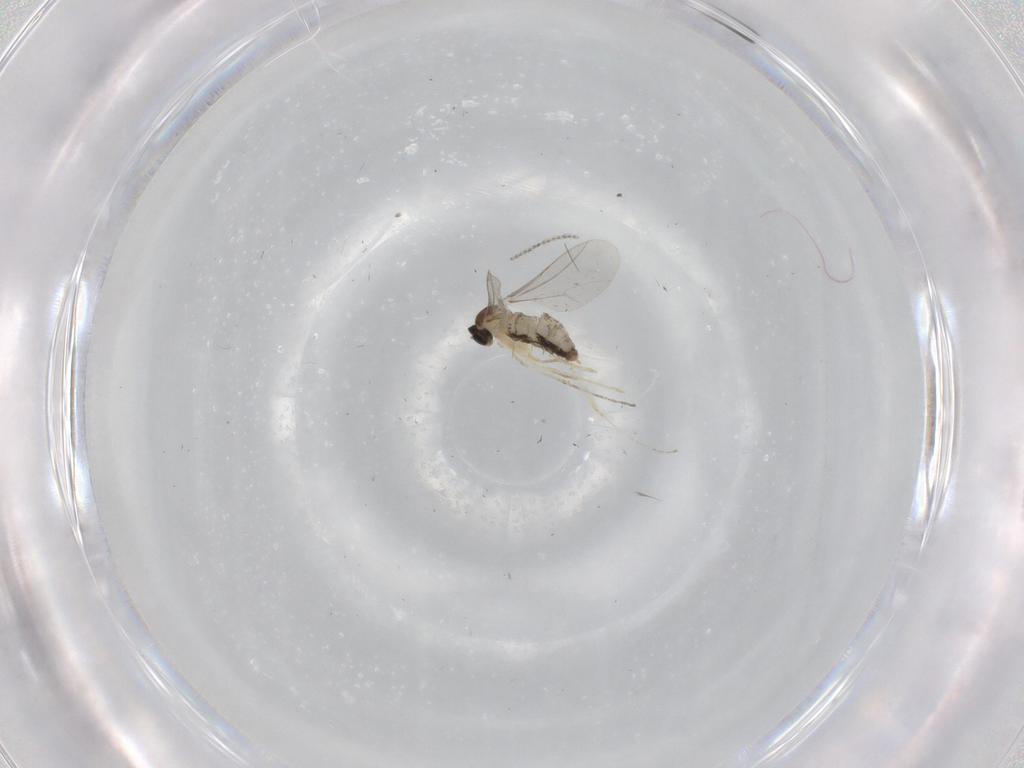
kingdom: Animalia
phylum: Arthropoda
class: Insecta
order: Diptera
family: Cecidomyiidae
